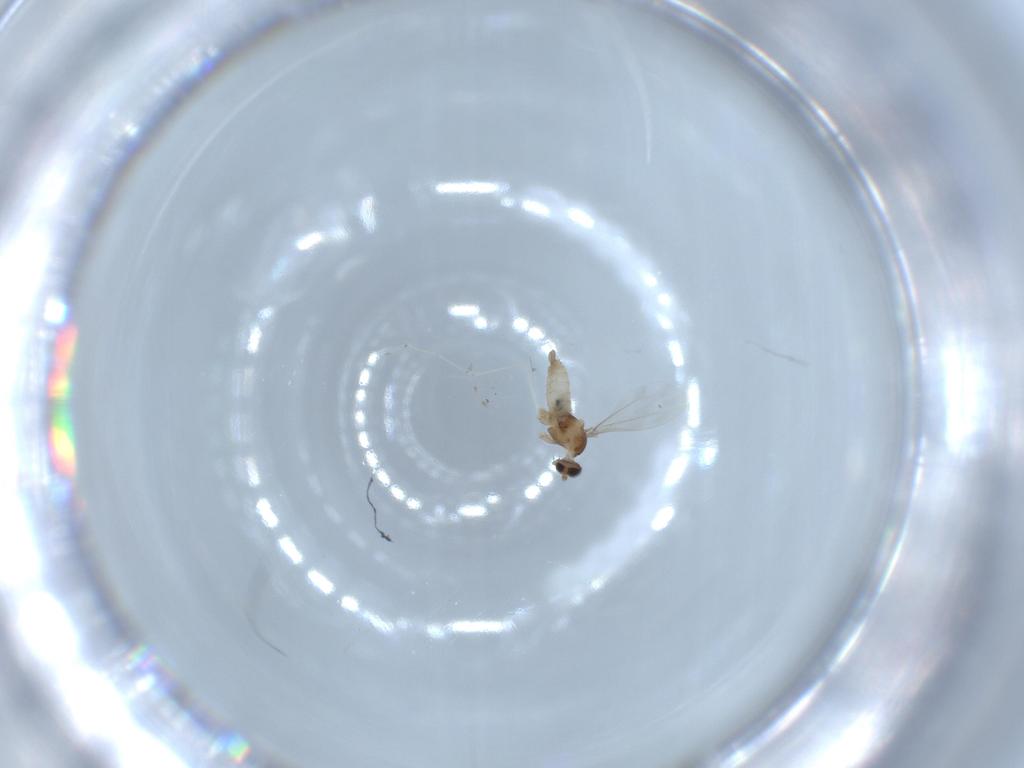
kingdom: Animalia
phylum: Arthropoda
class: Insecta
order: Diptera
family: Cecidomyiidae
